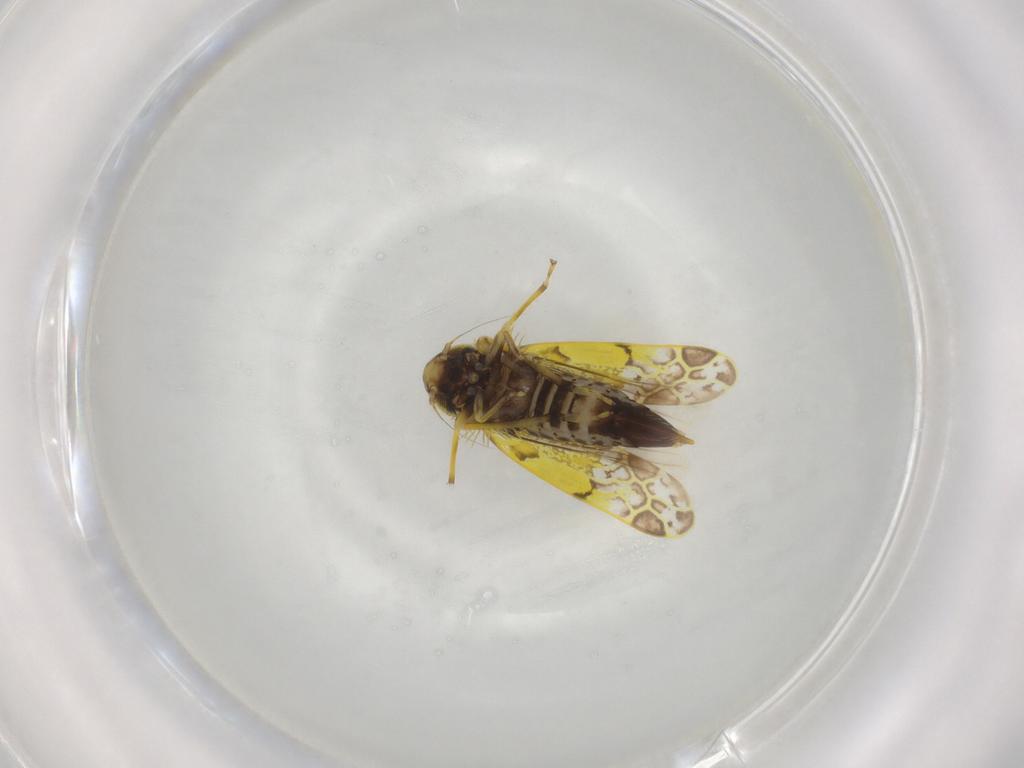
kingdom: Animalia
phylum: Arthropoda
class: Insecta
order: Hemiptera
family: Cicadellidae
